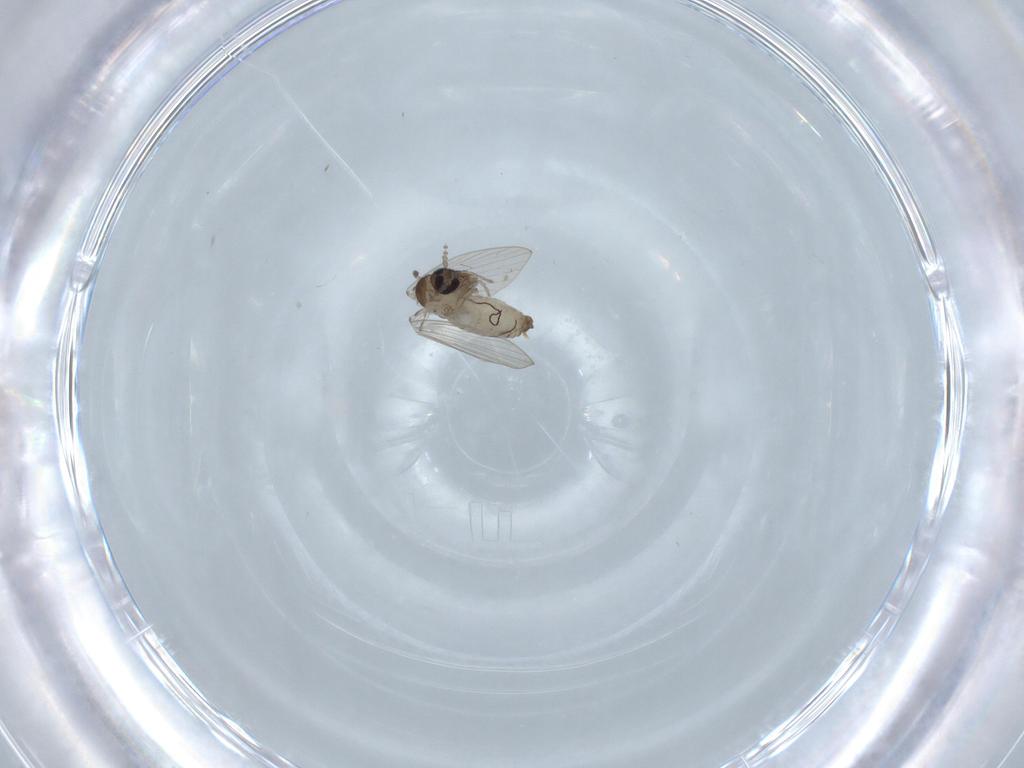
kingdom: Animalia
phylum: Arthropoda
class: Insecta
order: Diptera
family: Psychodidae
